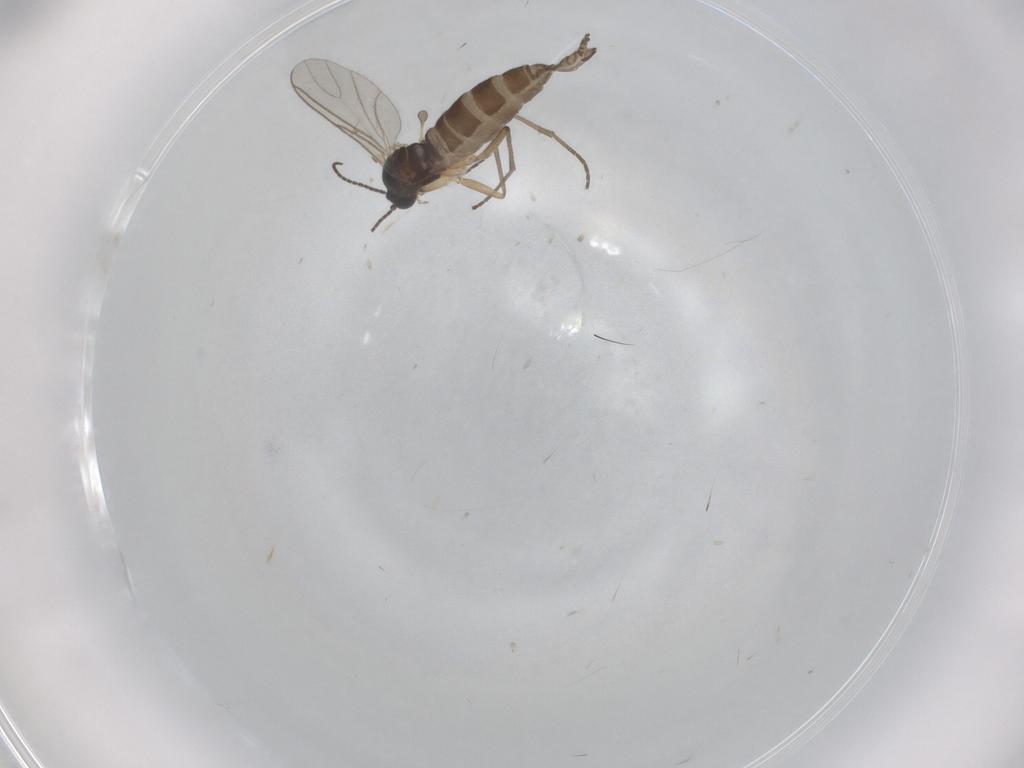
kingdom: Animalia
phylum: Arthropoda
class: Insecta
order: Diptera
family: Sciaridae
